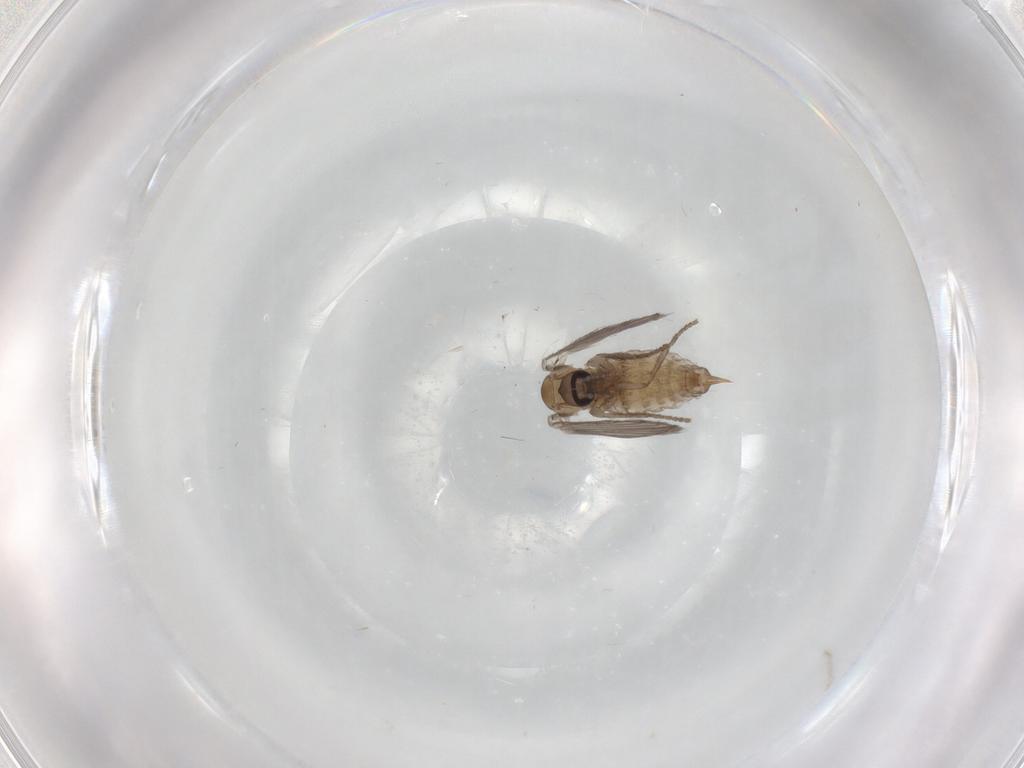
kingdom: Animalia
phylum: Arthropoda
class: Insecta
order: Diptera
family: Psychodidae
